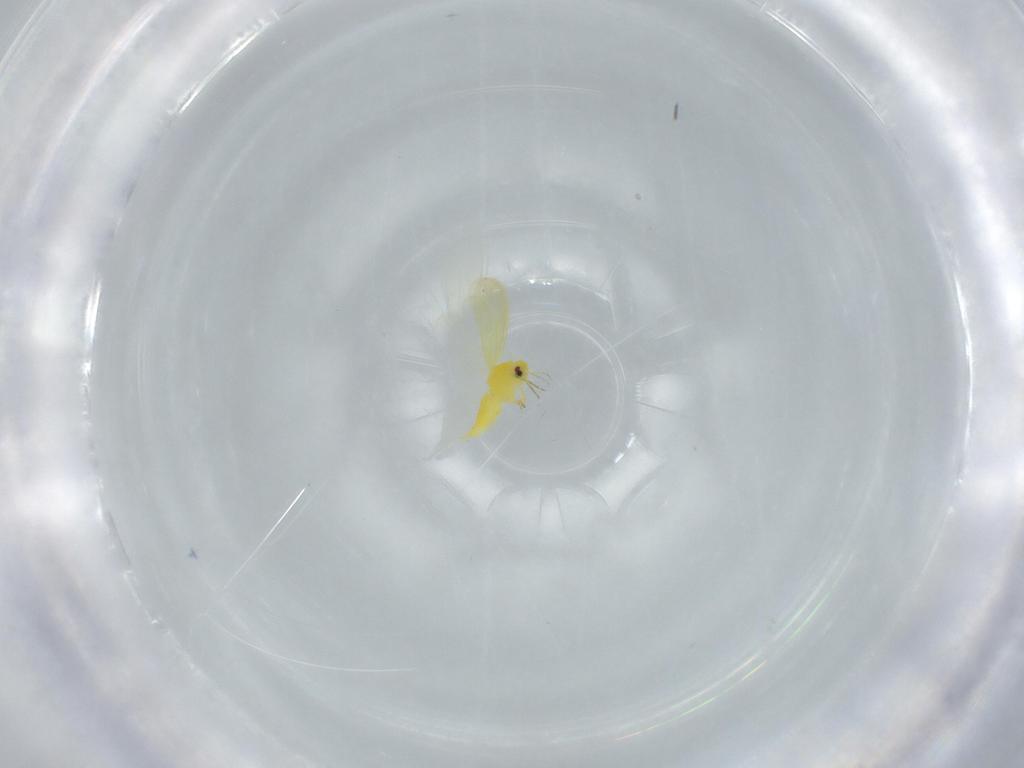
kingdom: Animalia
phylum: Arthropoda
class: Insecta
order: Hemiptera
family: Aleyrodidae
